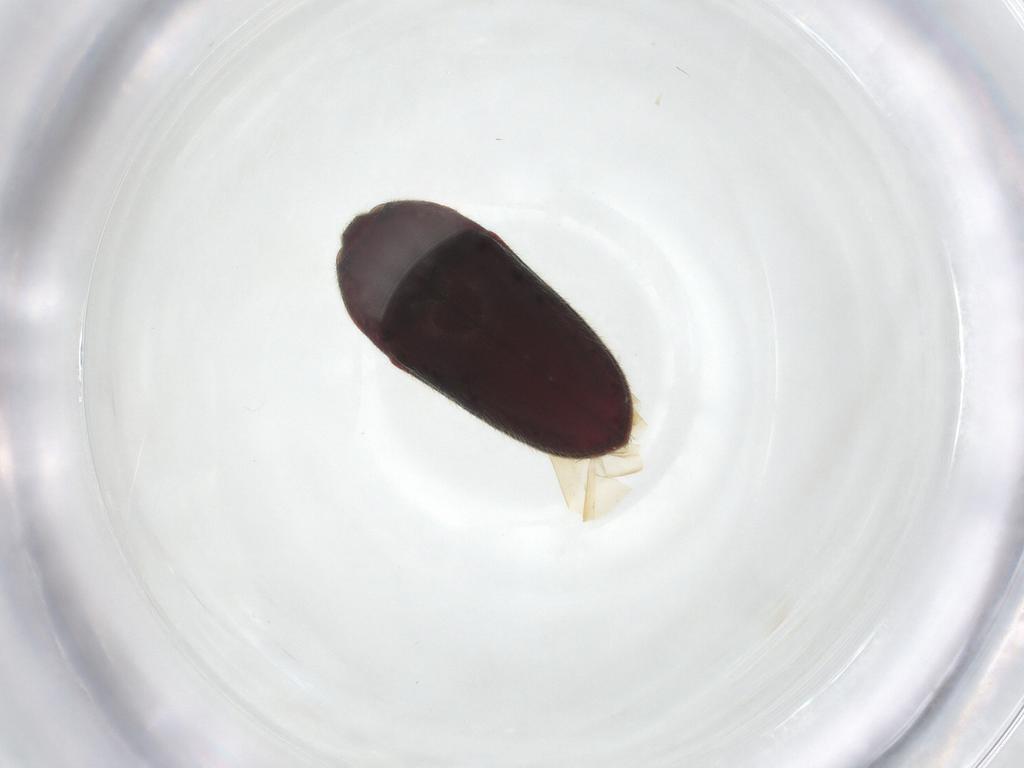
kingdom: Animalia
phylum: Arthropoda
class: Insecta
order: Coleoptera
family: Throscidae
